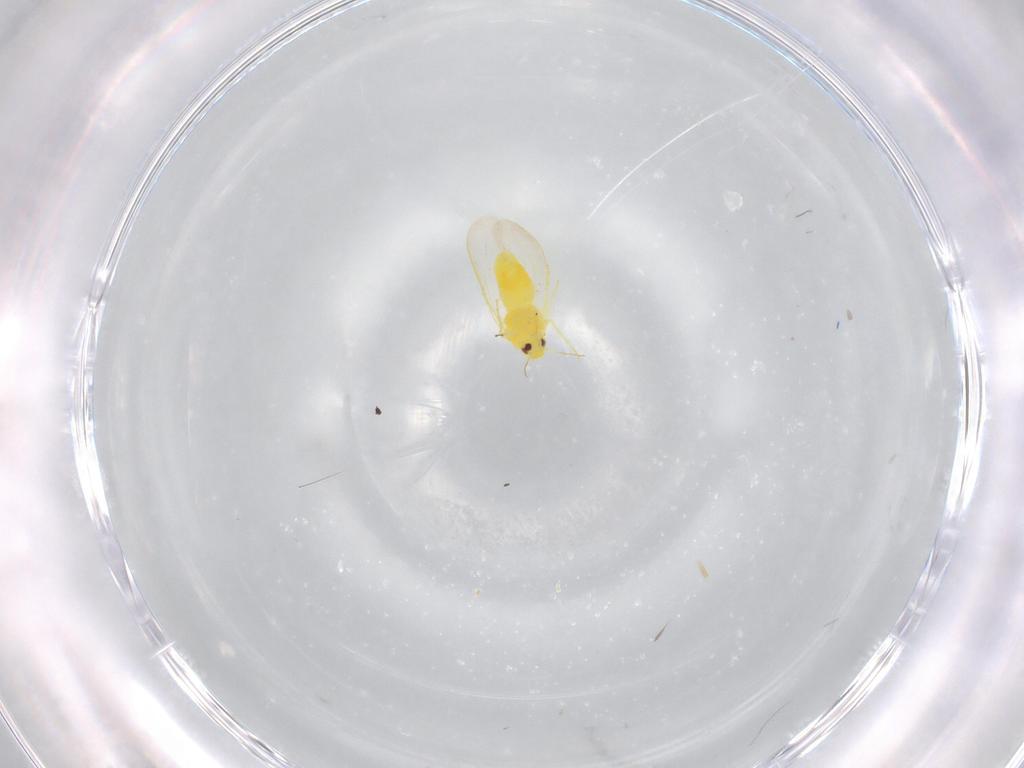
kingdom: Animalia
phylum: Arthropoda
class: Insecta
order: Hemiptera
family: Aleyrodidae
